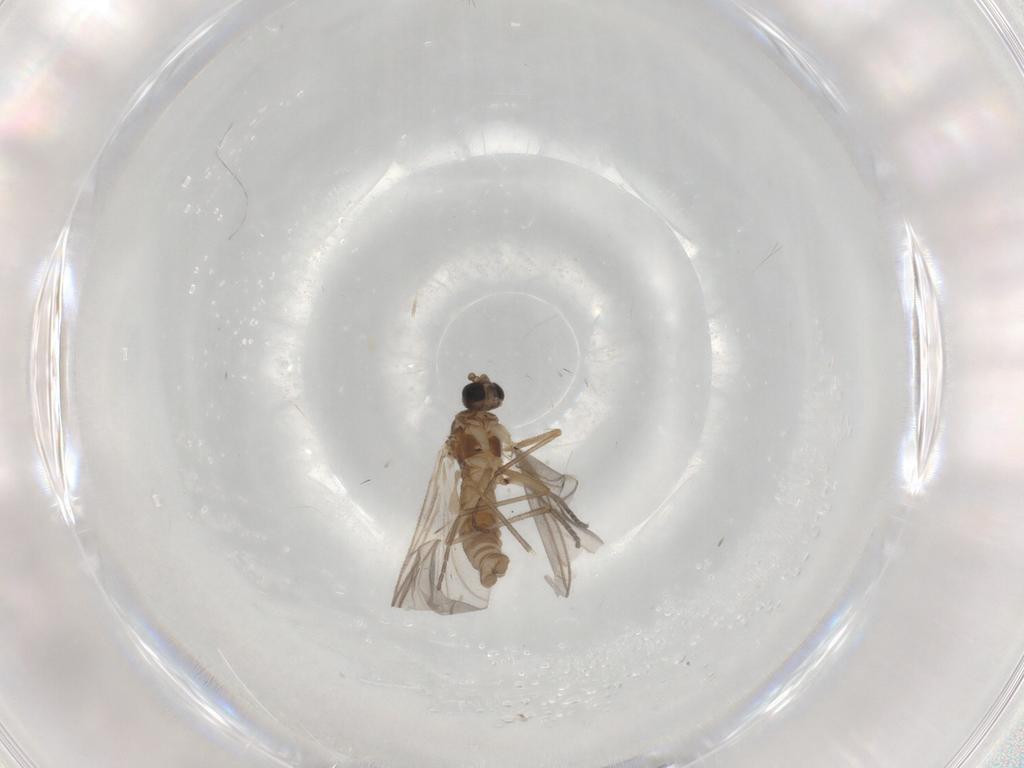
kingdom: Animalia
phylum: Arthropoda
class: Insecta
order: Diptera
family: Sciaridae
